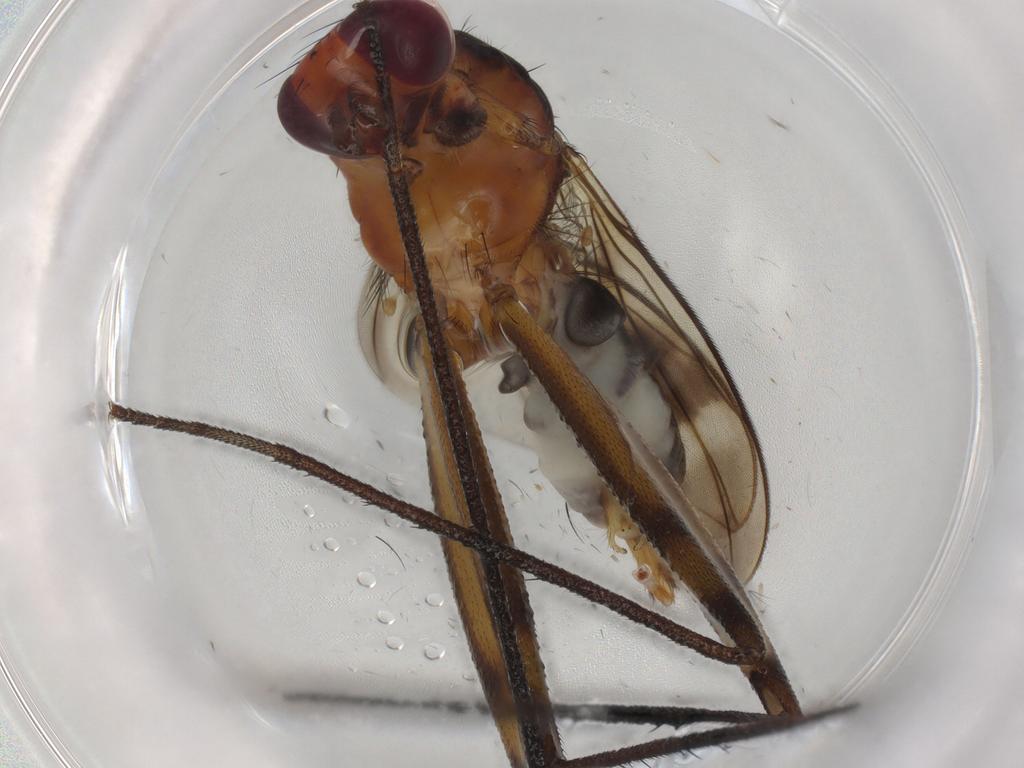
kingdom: Animalia
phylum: Arthropoda
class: Insecta
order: Diptera
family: Chironomidae
